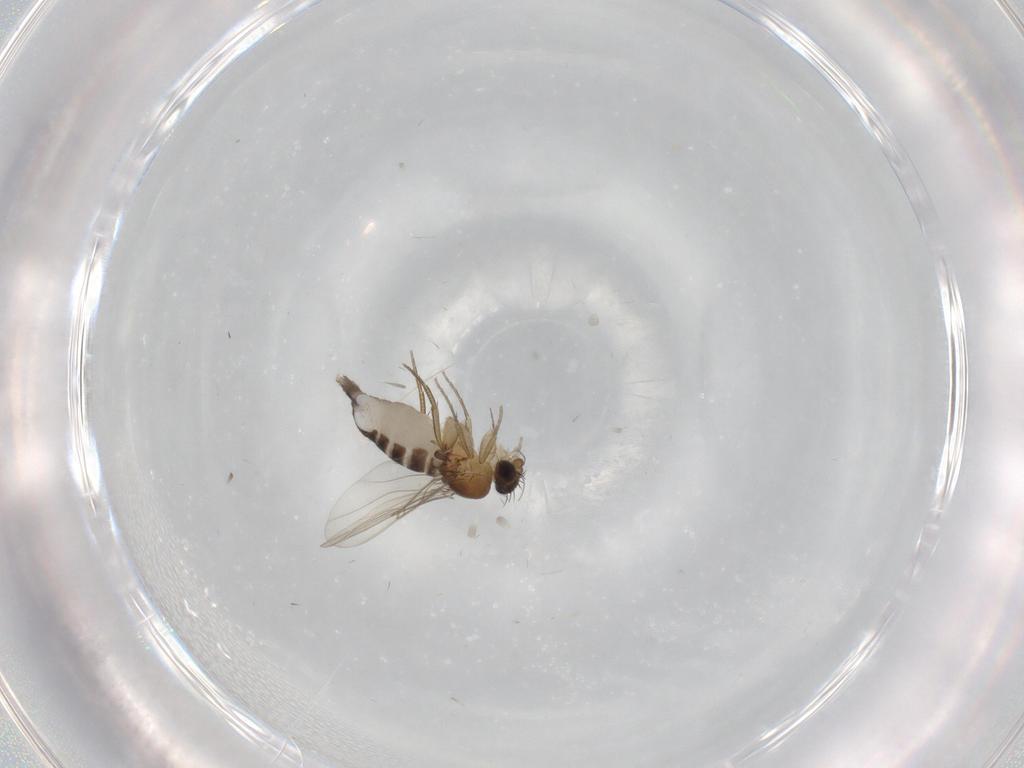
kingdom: Animalia
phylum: Arthropoda
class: Insecta
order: Diptera
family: Phoridae
